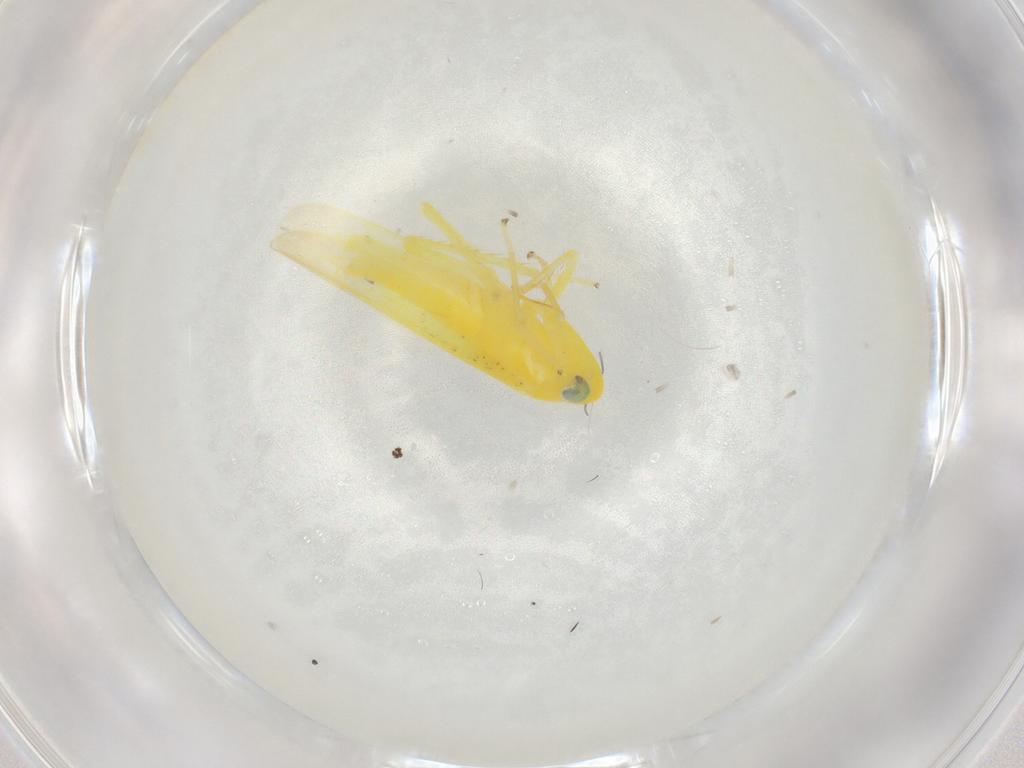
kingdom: Animalia
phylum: Arthropoda
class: Insecta
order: Hemiptera
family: Cicadellidae
